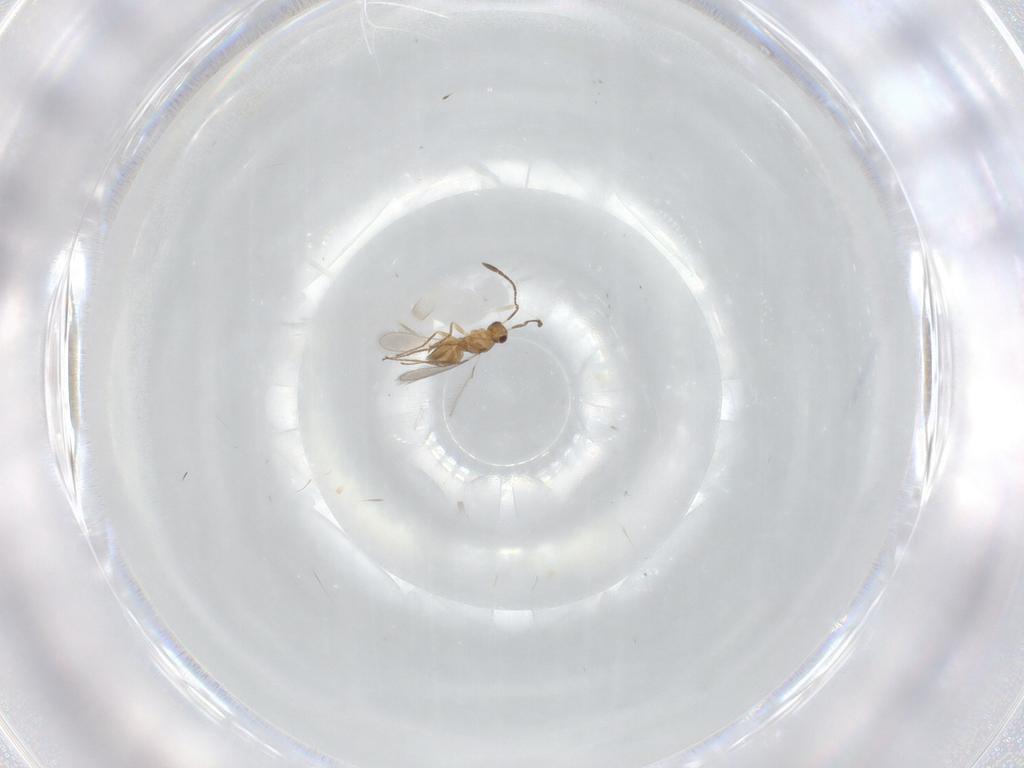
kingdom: Animalia
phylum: Arthropoda
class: Insecta
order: Hymenoptera
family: Mymaridae
